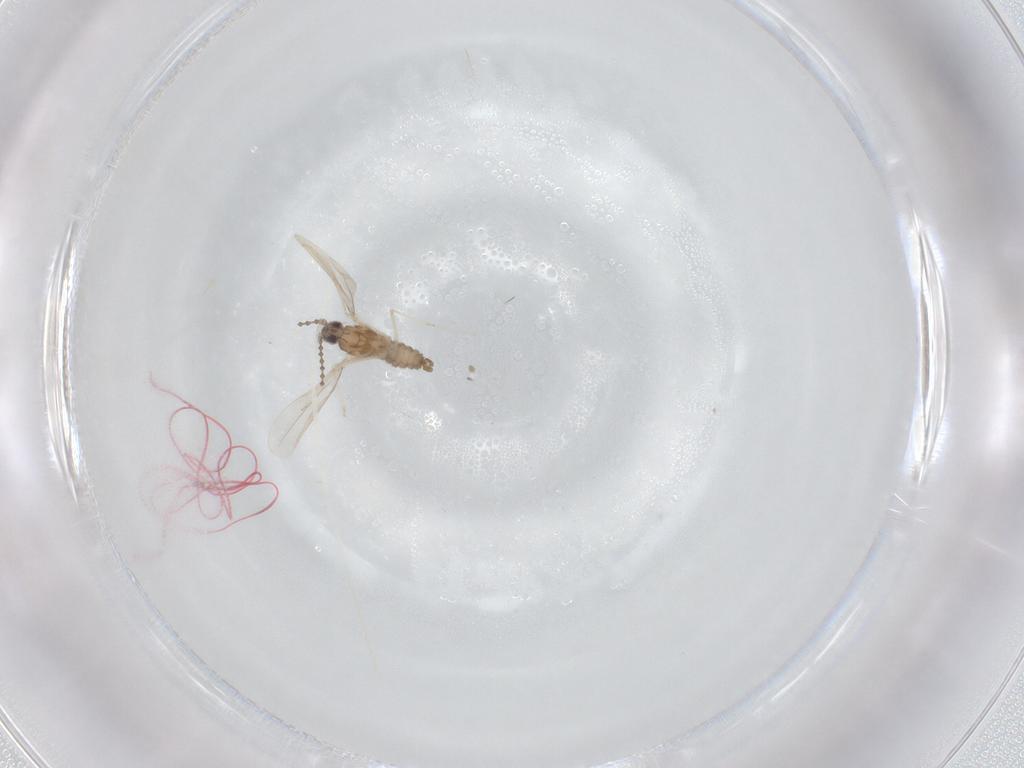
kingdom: Animalia
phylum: Arthropoda
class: Insecta
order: Diptera
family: Cecidomyiidae
